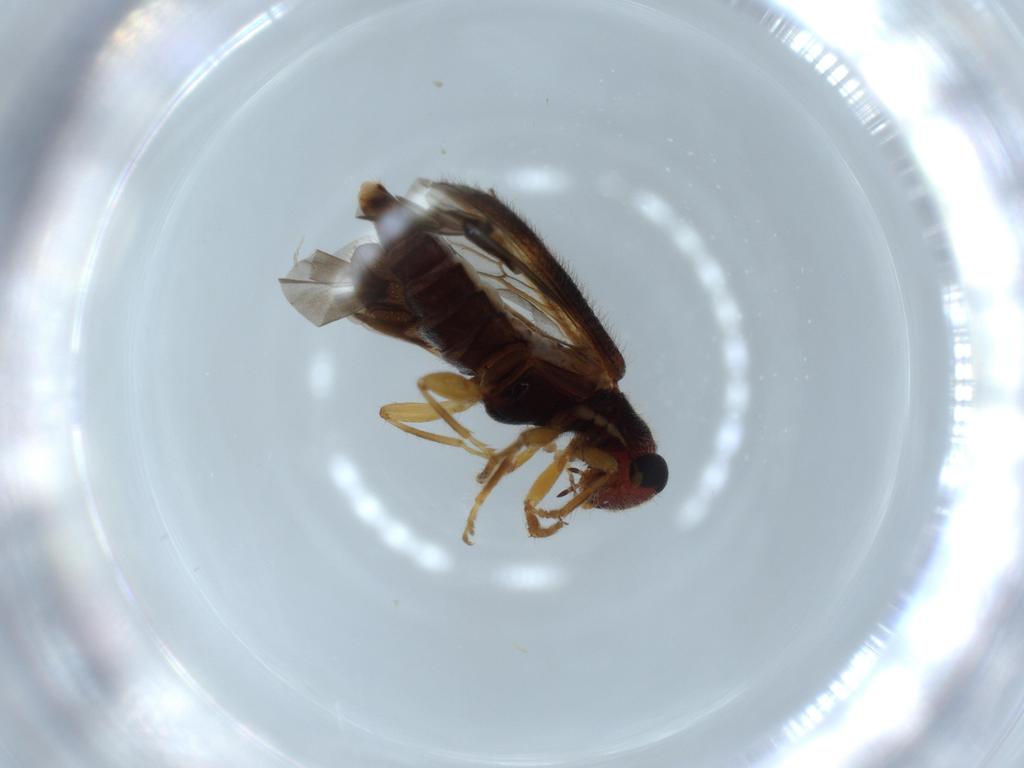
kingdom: Animalia
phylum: Arthropoda
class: Insecta
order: Coleoptera
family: Cleridae
